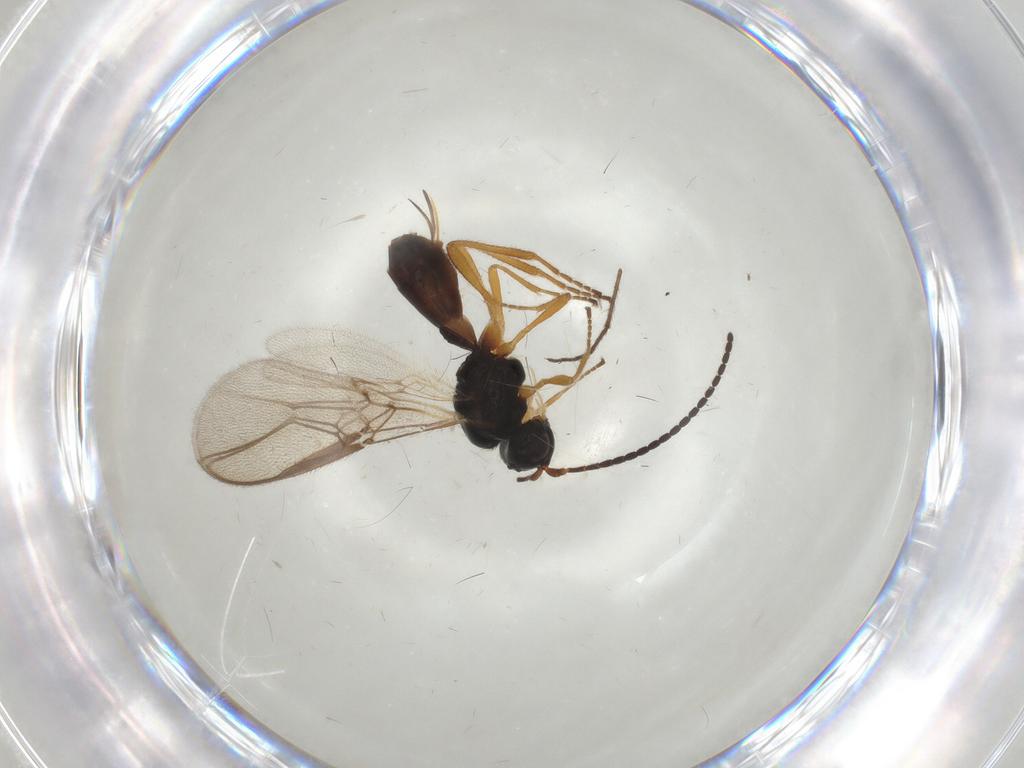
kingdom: Animalia
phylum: Arthropoda
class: Insecta
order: Hymenoptera
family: Braconidae
